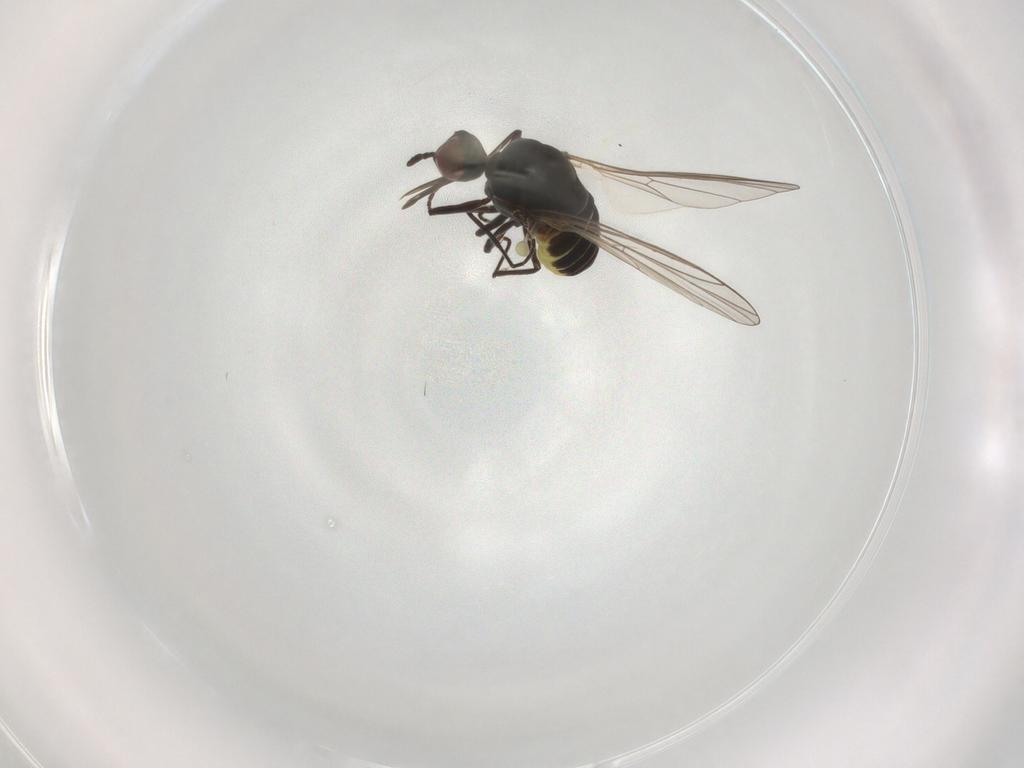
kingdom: Animalia
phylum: Arthropoda
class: Insecta
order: Diptera
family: Bombyliidae
